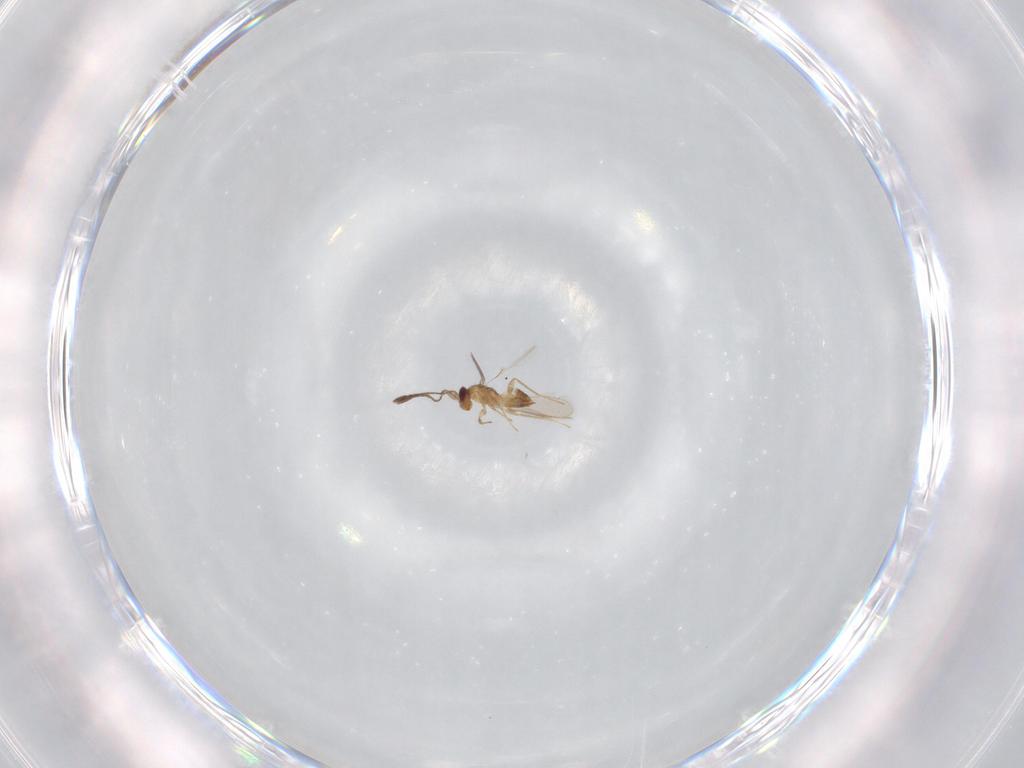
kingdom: Animalia
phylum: Arthropoda
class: Insecta
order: Hymenoptera
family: Mymaridae
